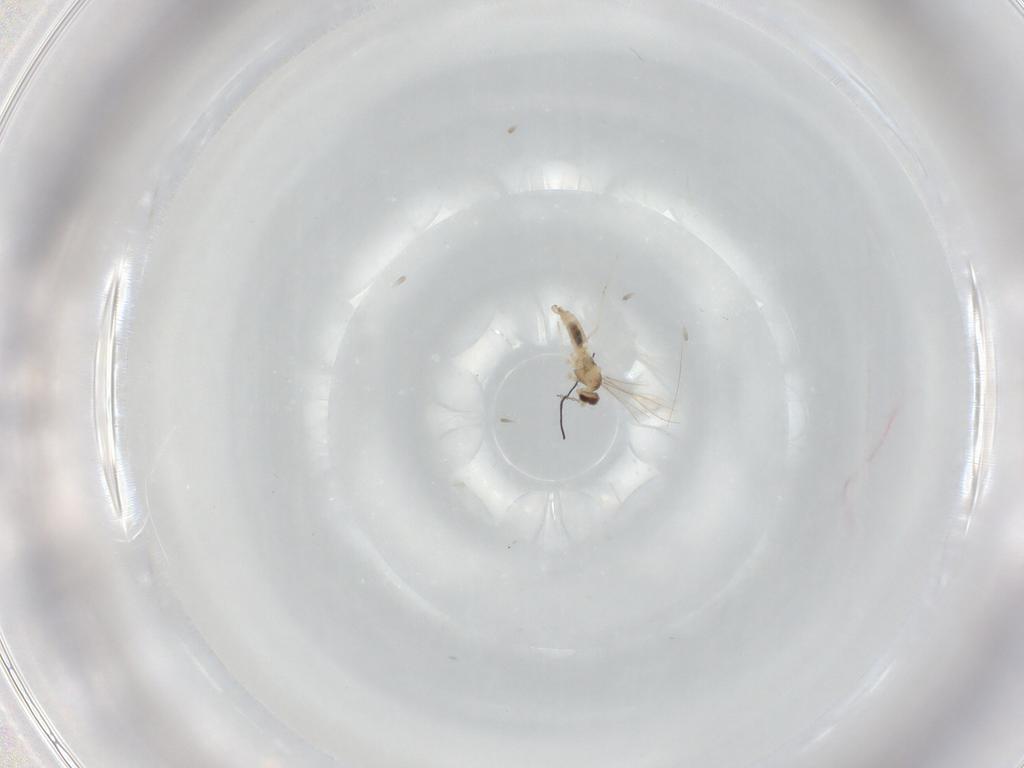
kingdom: Animalia
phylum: Arthropoda
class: Insecta
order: Diptera
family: Cecidomyiidae
